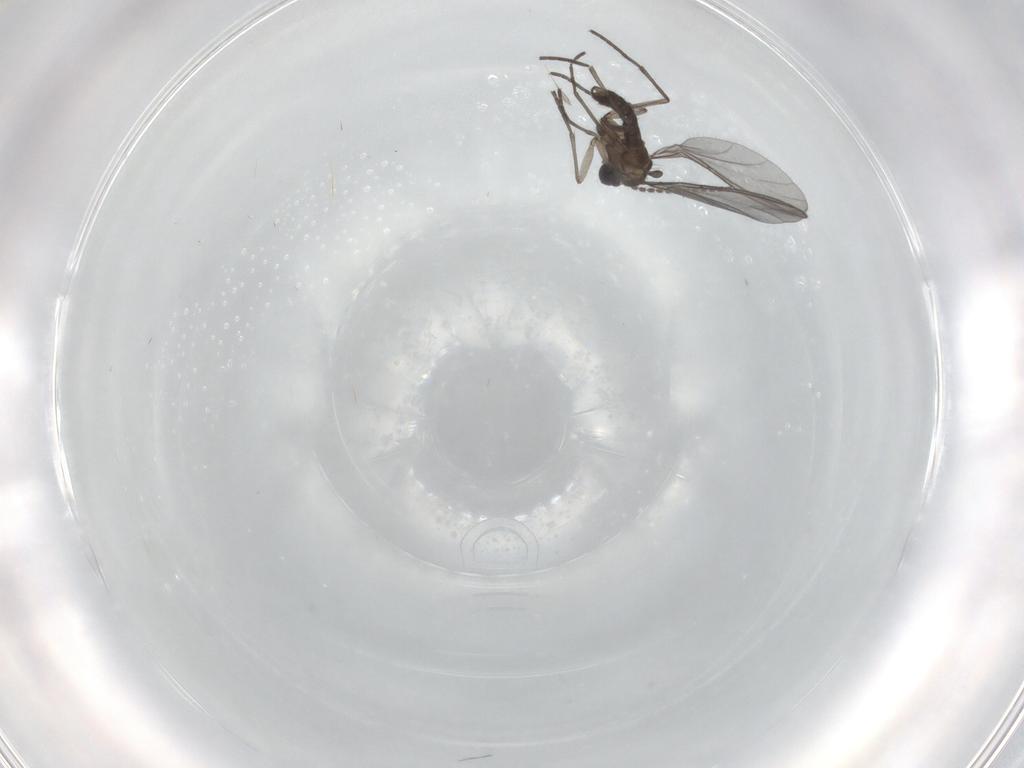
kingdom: Animalia
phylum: Arthropoda
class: Insecta
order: Diptera
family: Sciaridae
